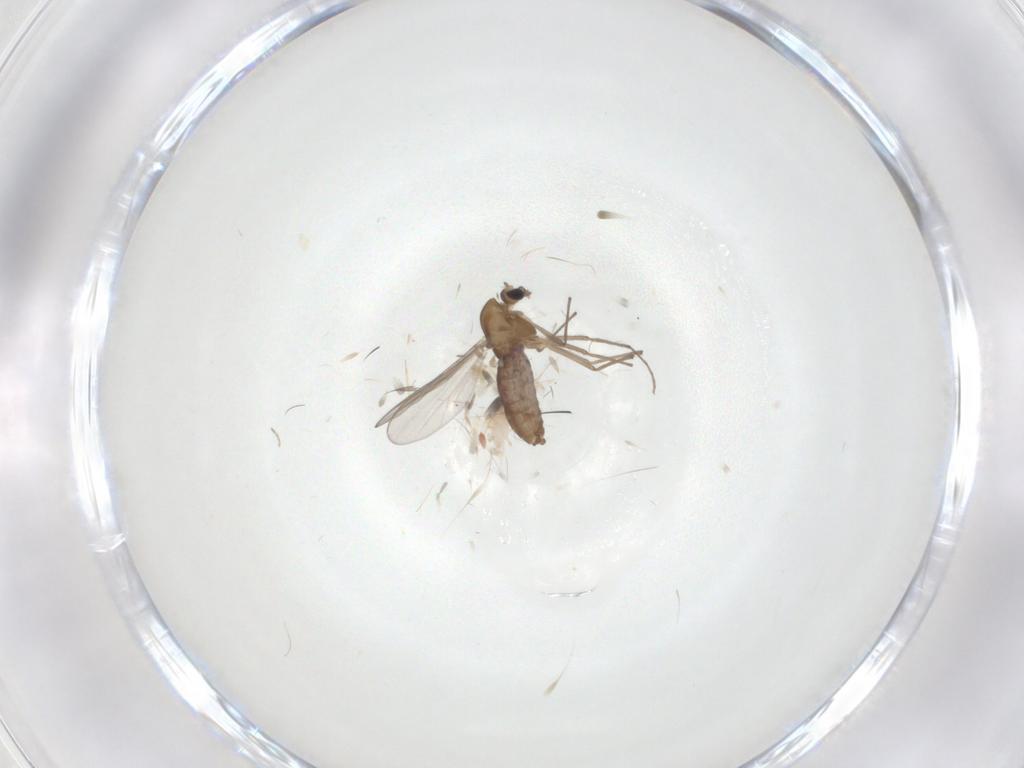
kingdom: Animalia
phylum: Arthropoda
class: Insecta
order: Diptera
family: Chironomidae
